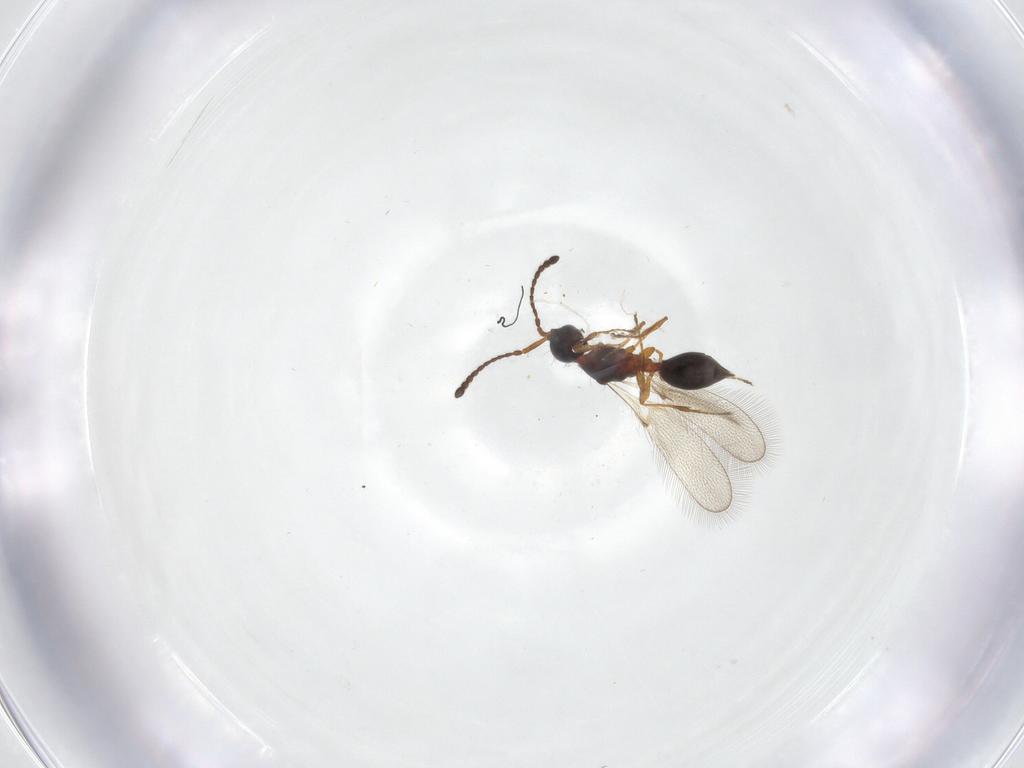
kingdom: Animalia
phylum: Arthropoda
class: Insecta
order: Hymenoptera
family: Diapriidae
